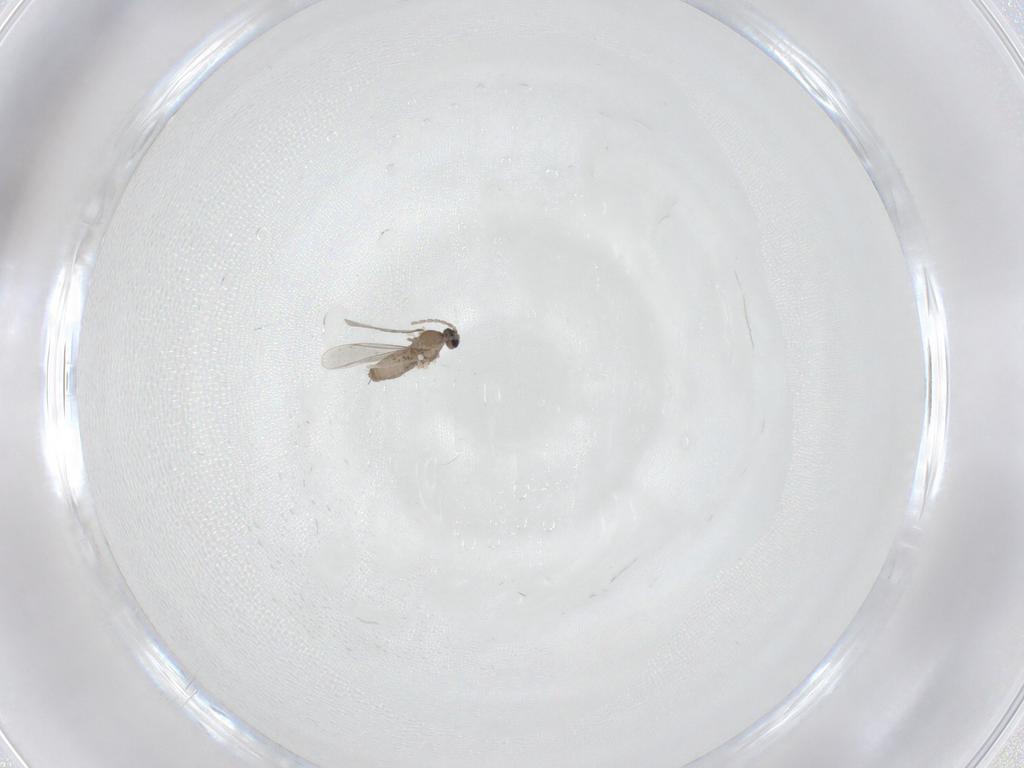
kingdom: Animalia
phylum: Arthropoda
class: Insecta
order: Diptera
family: Cecidomyiidae
